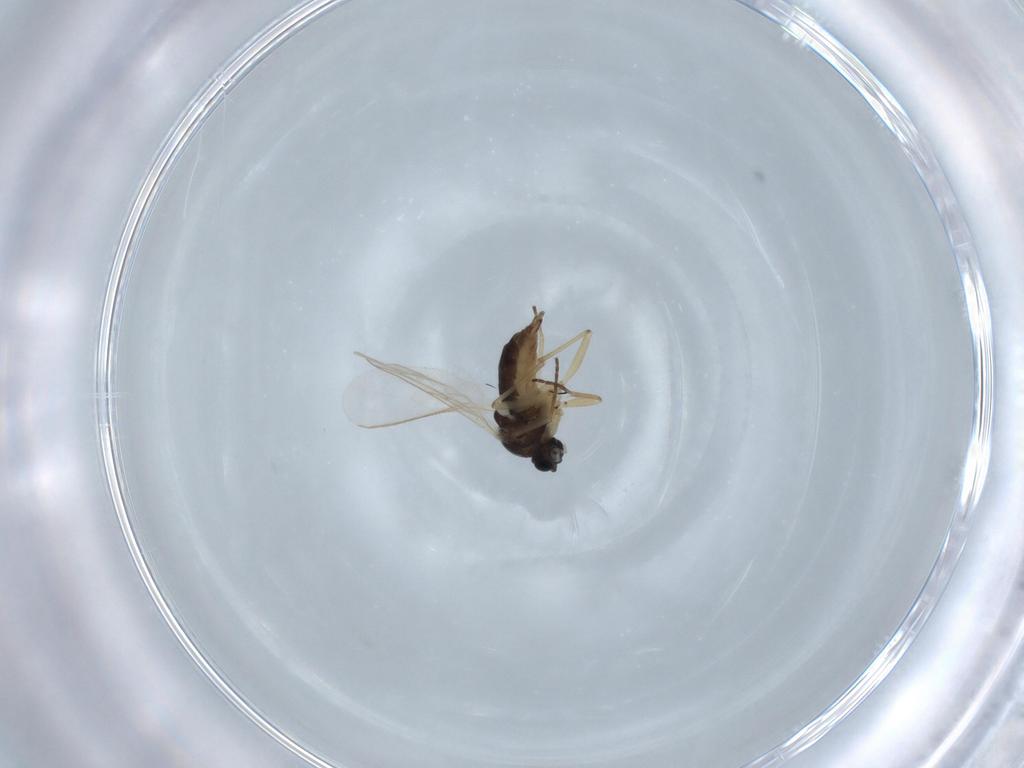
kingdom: Animalia
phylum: Arthropoda
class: Insecta
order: Diptera
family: Sciaridae
